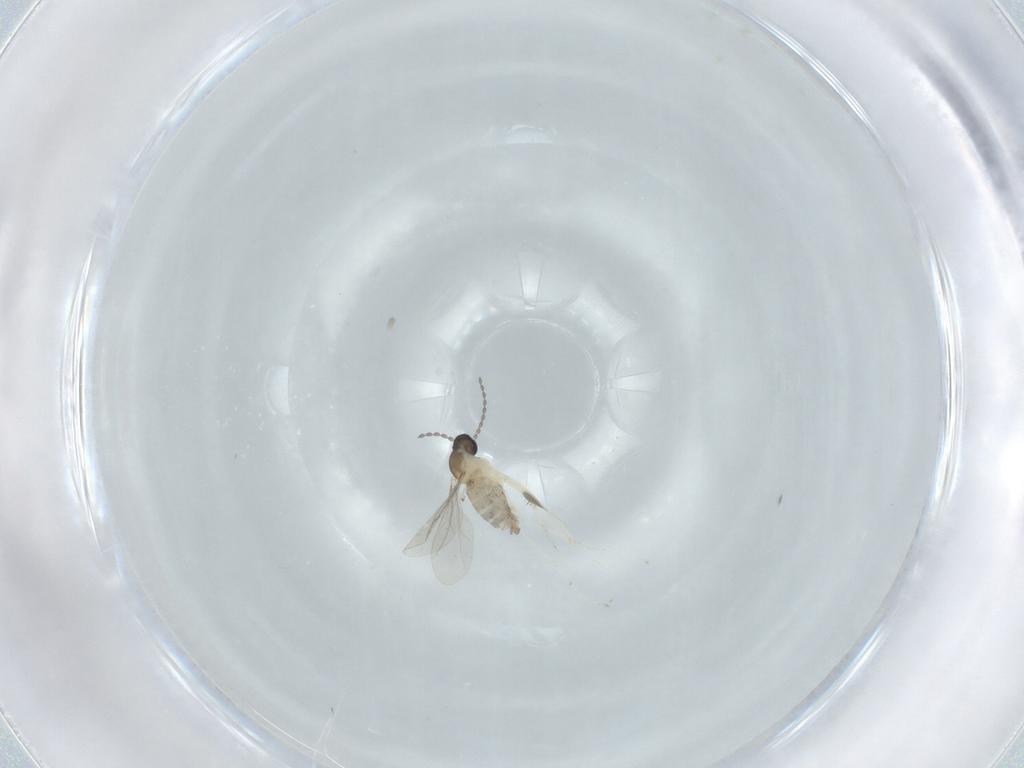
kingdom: Animalia
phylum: Arthropoda
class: Insecta
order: Diptera
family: Cecidomyiidae
